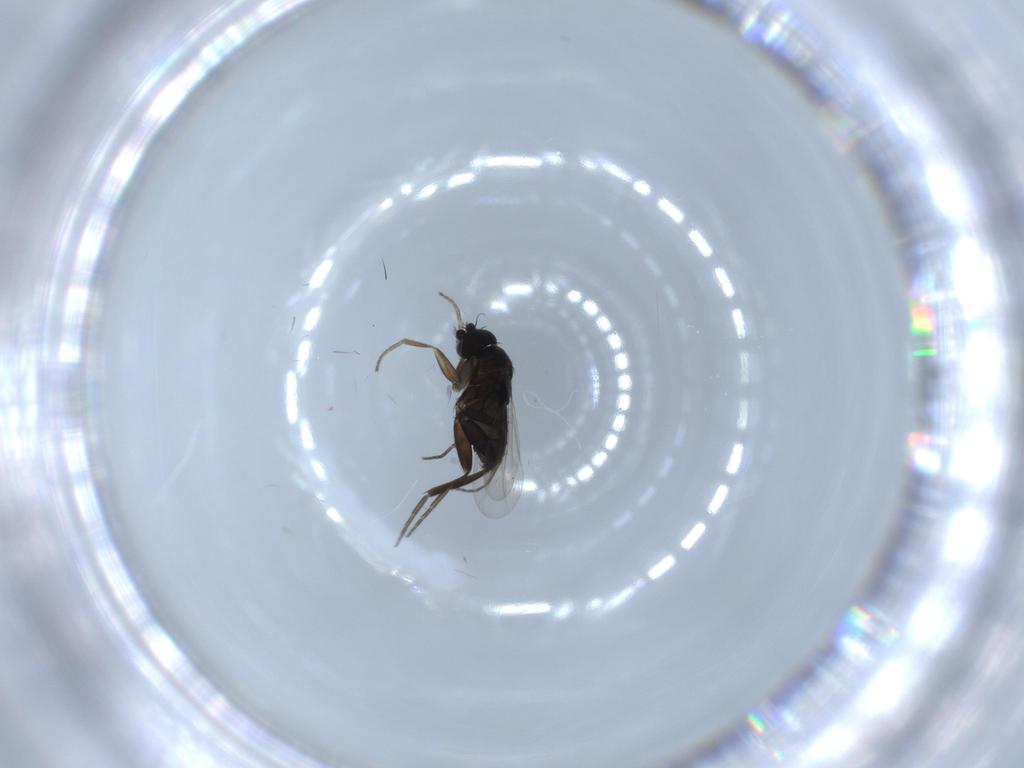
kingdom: Animalia
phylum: Arthropoda
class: Insecta
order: Diptera
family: Phoridae
